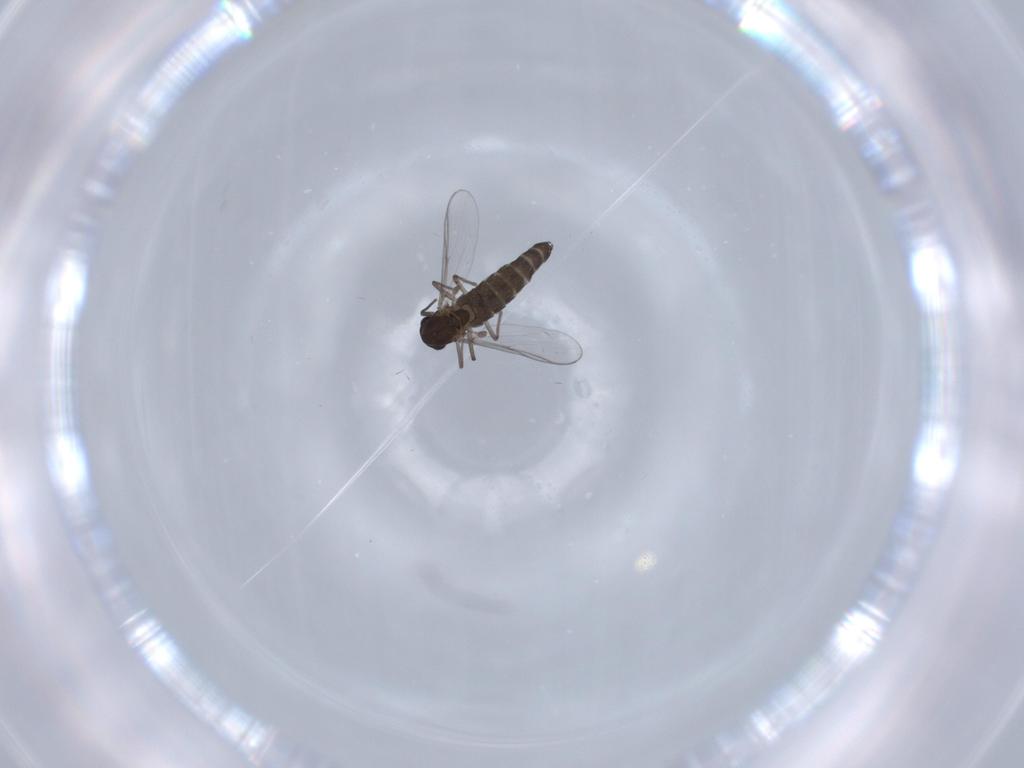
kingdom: Animalia
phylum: Arthropoda
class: Insecta
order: Diptera
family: Chironomidae
